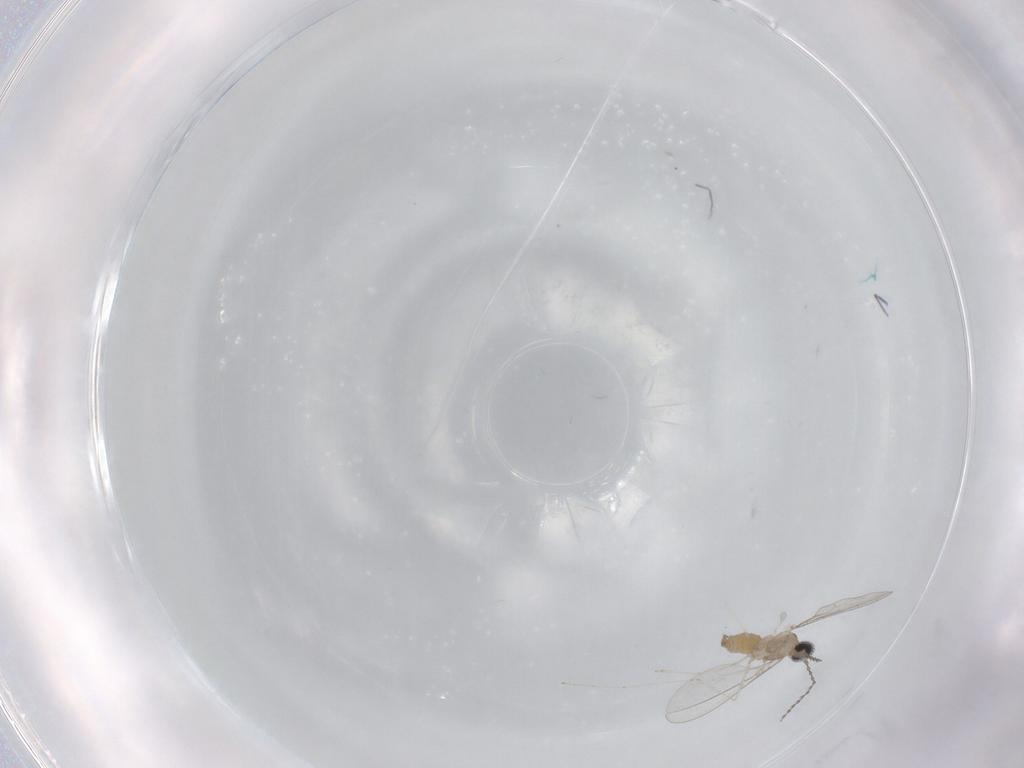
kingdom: Animalia
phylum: Arthropoda
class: Insecta
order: Diptera
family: Cecidomyiidae
